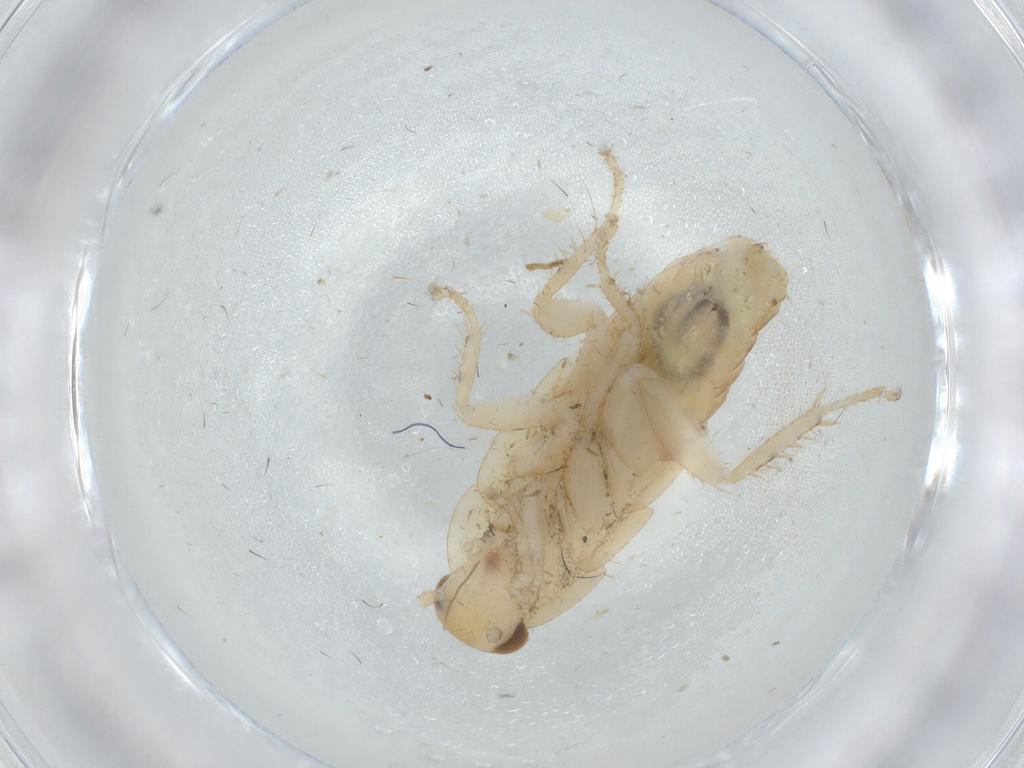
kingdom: Animalia
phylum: Arthropoda
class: Insecta
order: Blattodea
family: Ectobiidae
